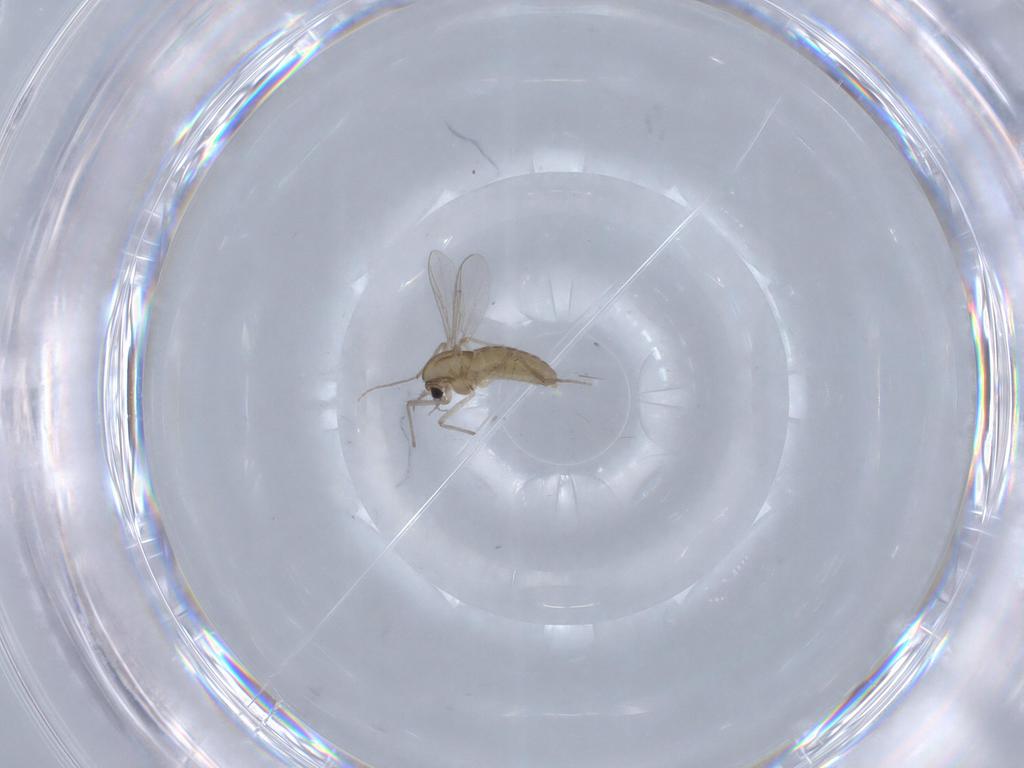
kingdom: Animalia
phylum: Arthropoda
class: Insecta
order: Diptera
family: Chironomidae
